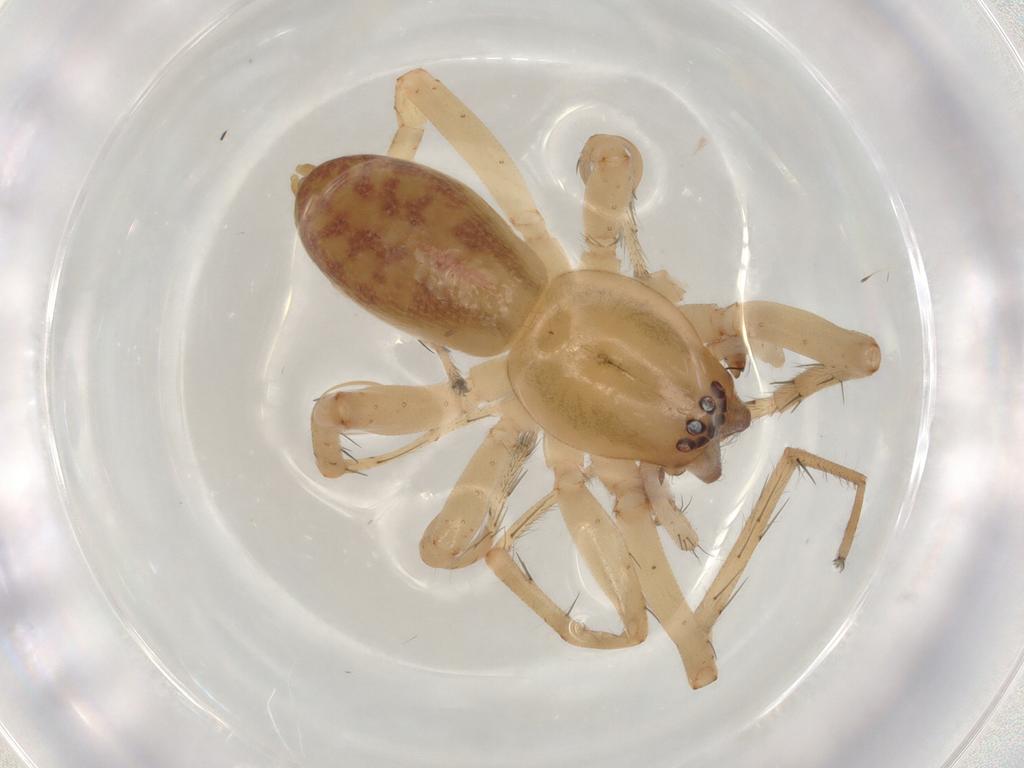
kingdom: Animalia
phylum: Arthropoda
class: Arachnida
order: Araneae
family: Anyphaenidae
